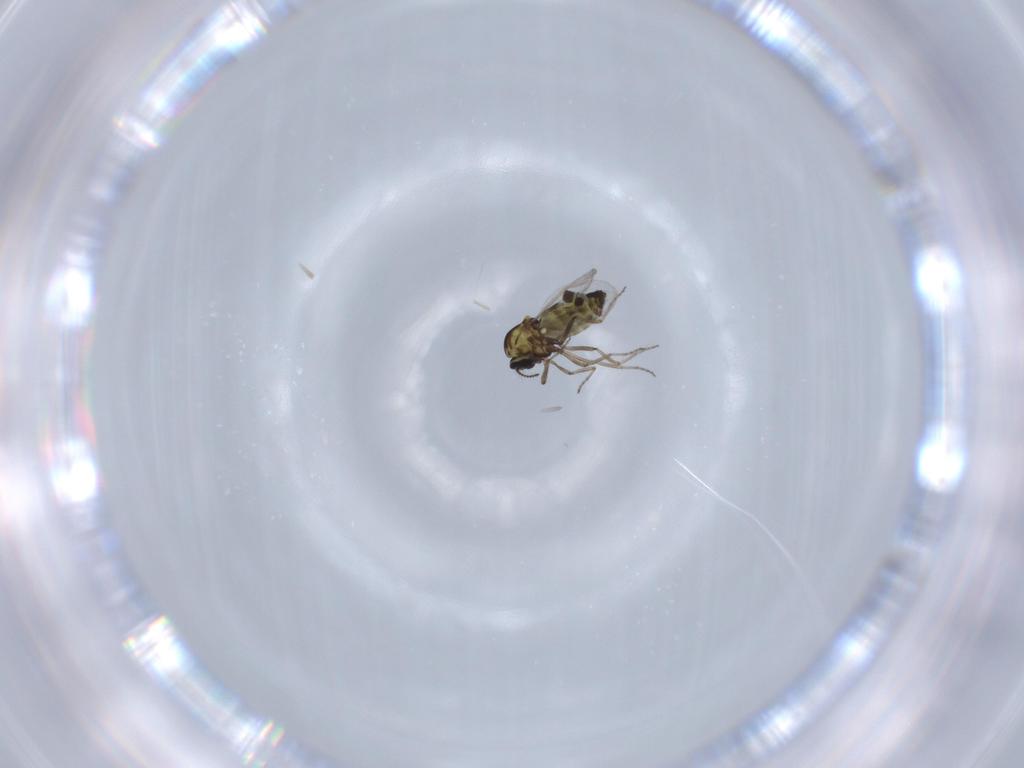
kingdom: Animalia
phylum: Arthropoda
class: Insecta
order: Diptera
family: Ceratopogonidae
